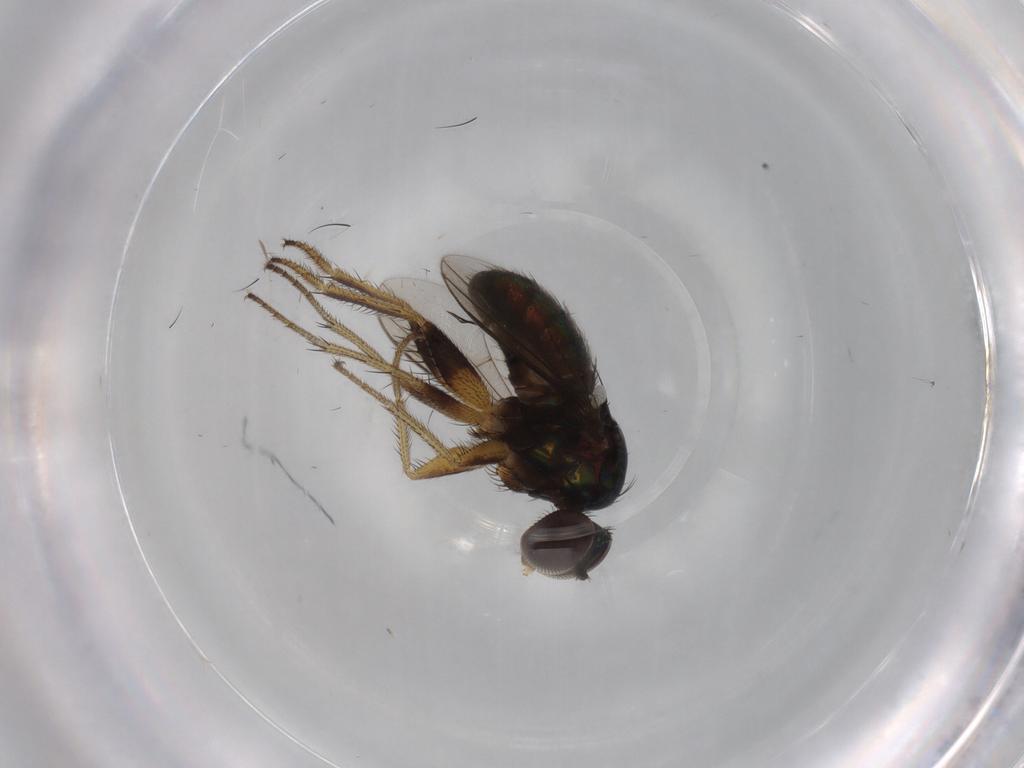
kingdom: Animalia
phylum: Arthropoda
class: Insecta
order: Diptera
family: Dolichopodidae
